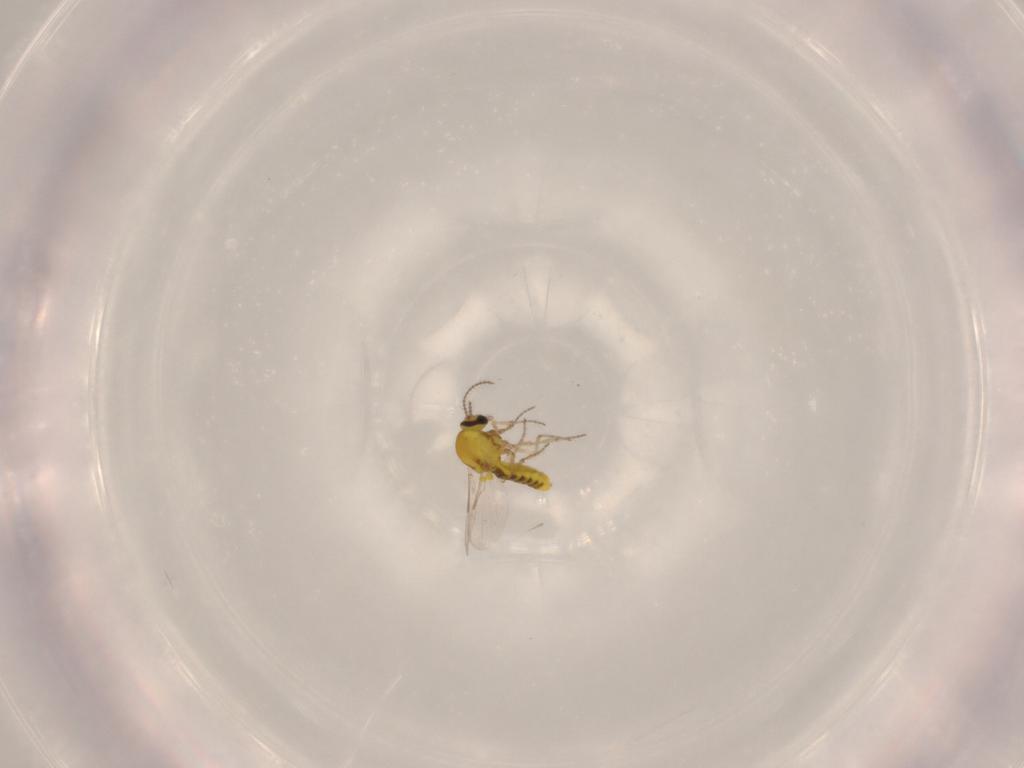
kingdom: Animalia
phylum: Arthropoda
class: Insecta
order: Diptera
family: Ceratopogonidae
